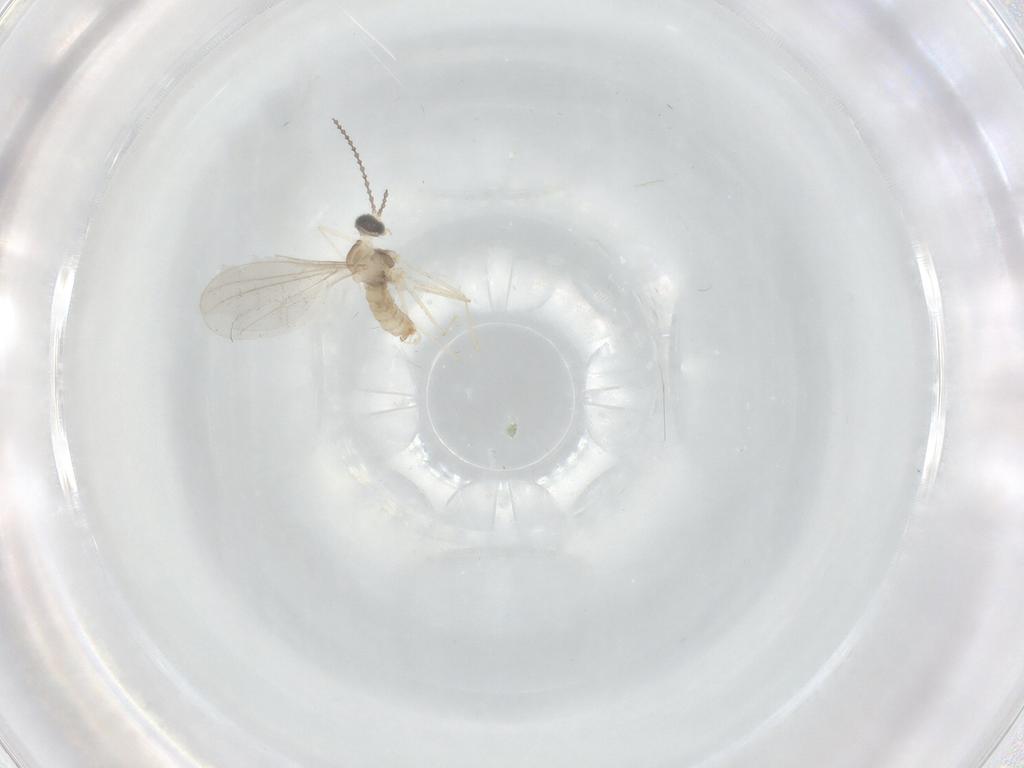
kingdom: Animalia
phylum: Arthropoda
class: Insecta
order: Diptera
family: Cecidomyiidae
